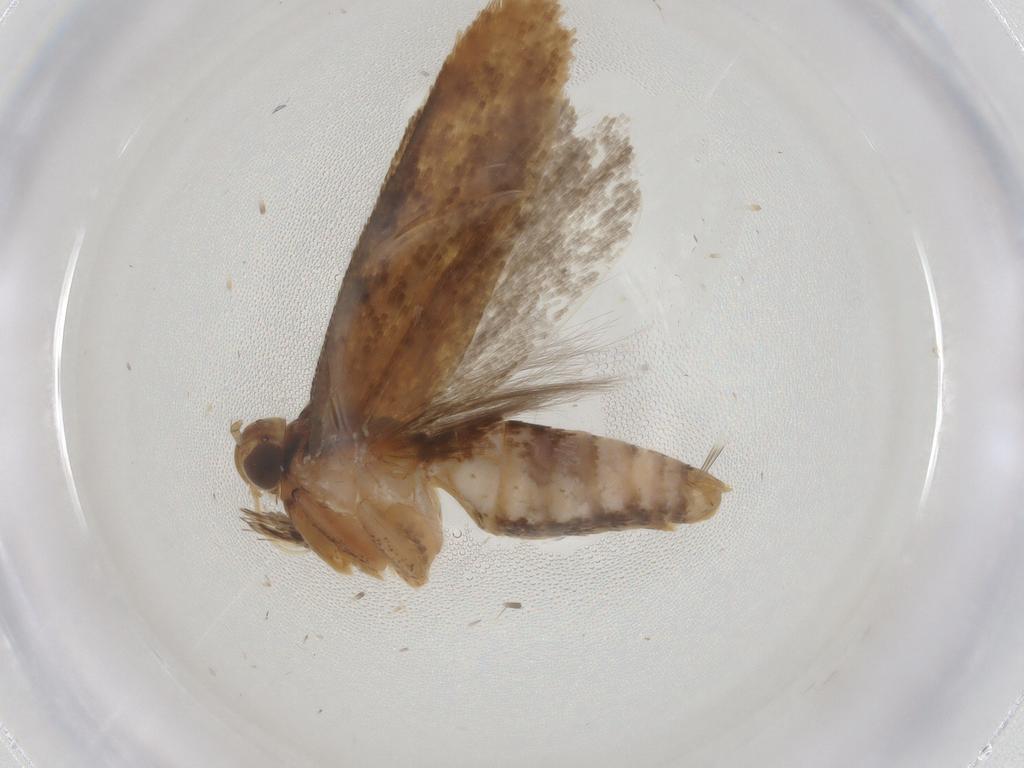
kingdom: Animalia
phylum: Arthropoda
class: Insecta
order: Lepidoptera
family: Gelechiidae
